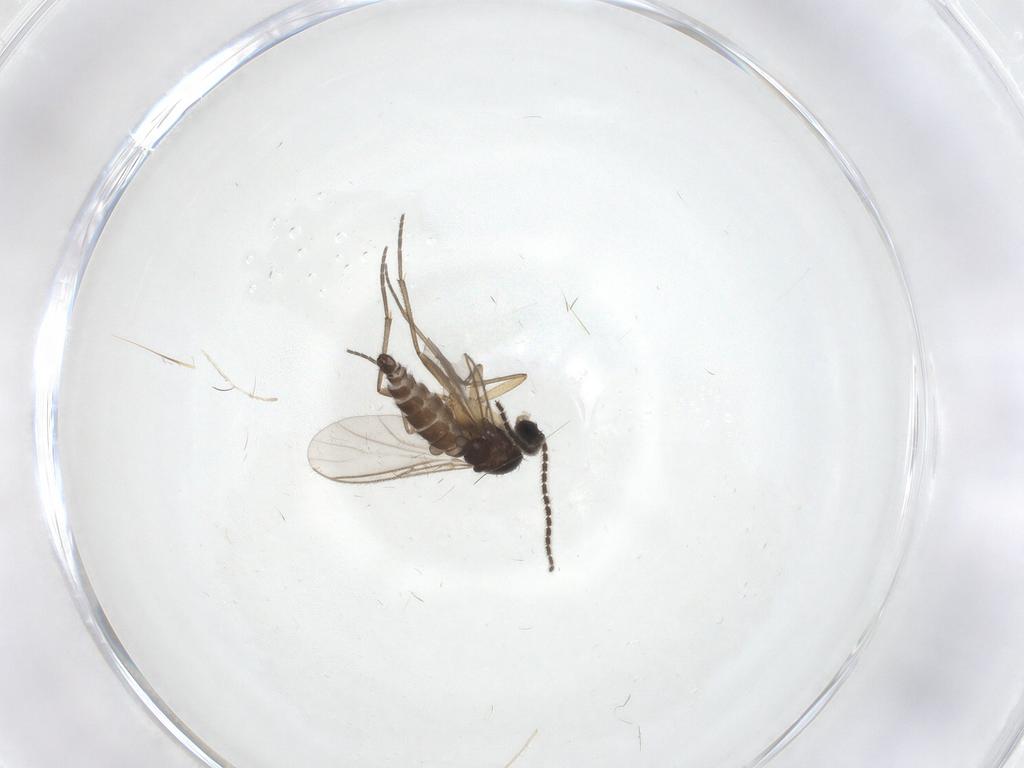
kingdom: Animalia
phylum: Arthropoda
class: Insecta
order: Diptera
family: Sciaridae
